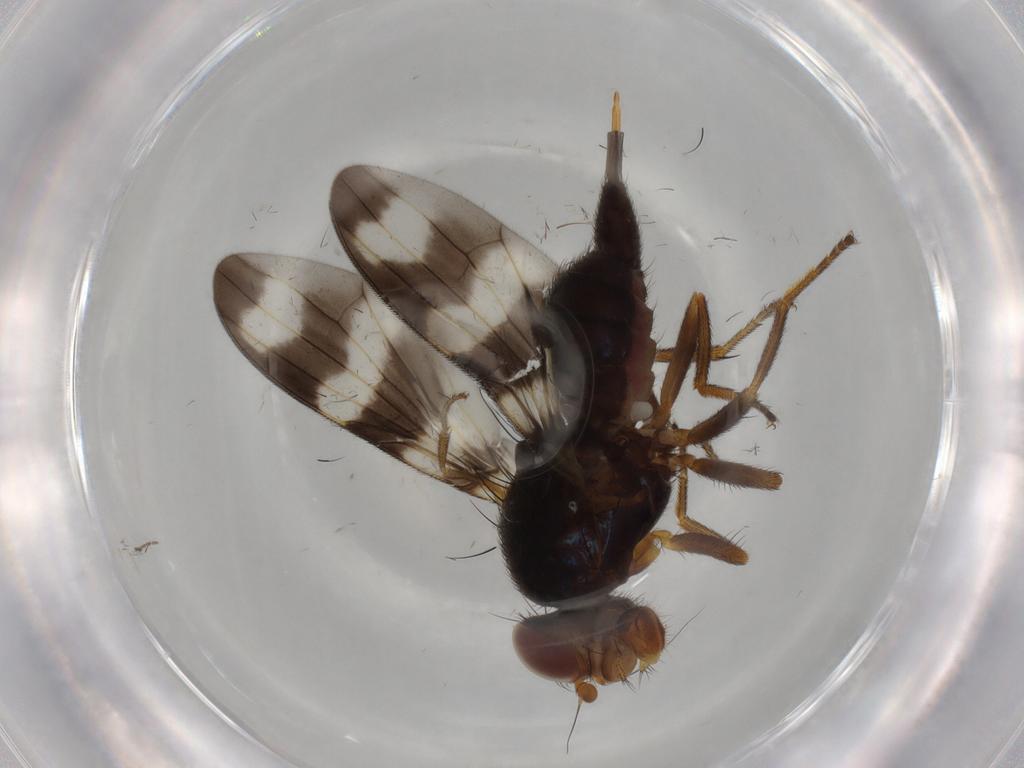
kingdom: Animalia
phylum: Arthropoda
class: Insecta
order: Diptera
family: Ulidiidae
